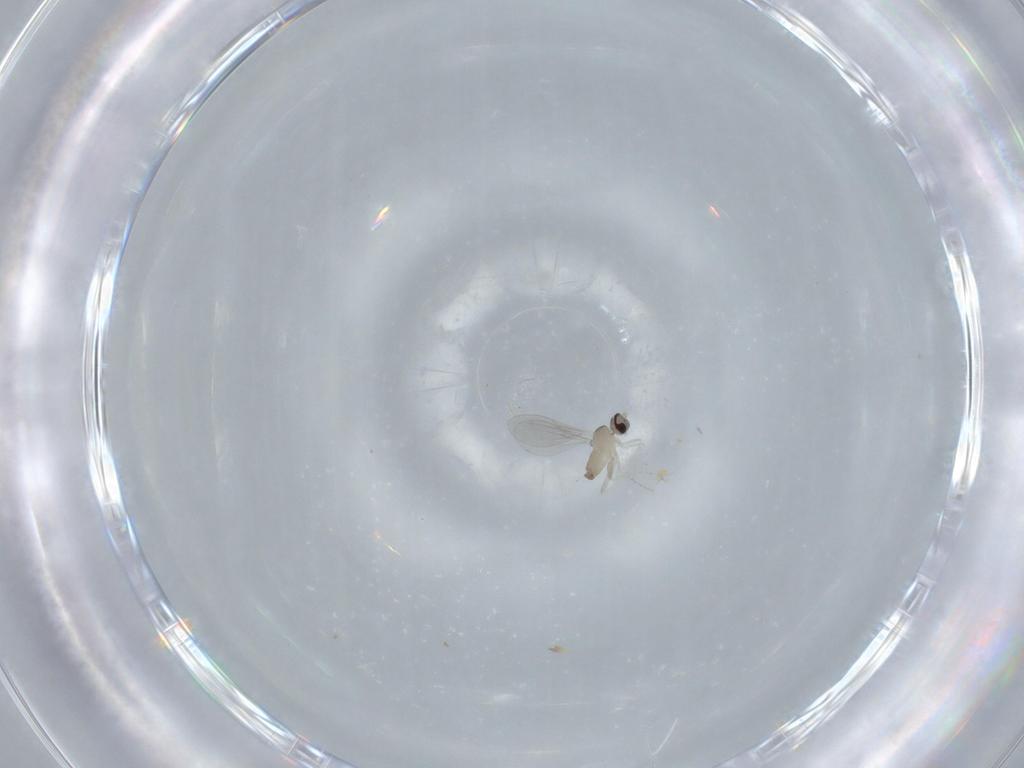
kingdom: Animalia
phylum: Arthropoda
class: Insecta
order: Diptera
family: Cecidomyiidae
